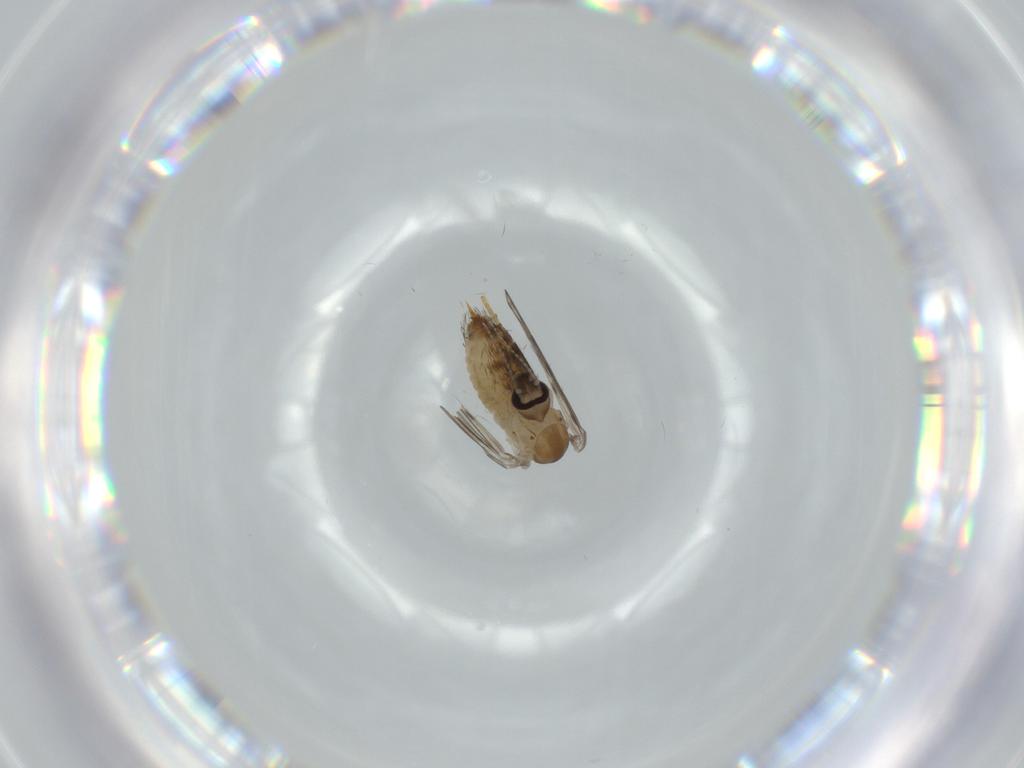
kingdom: Animalia
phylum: Arthropoda
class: Insecta
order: Diptera
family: Psychodidae
